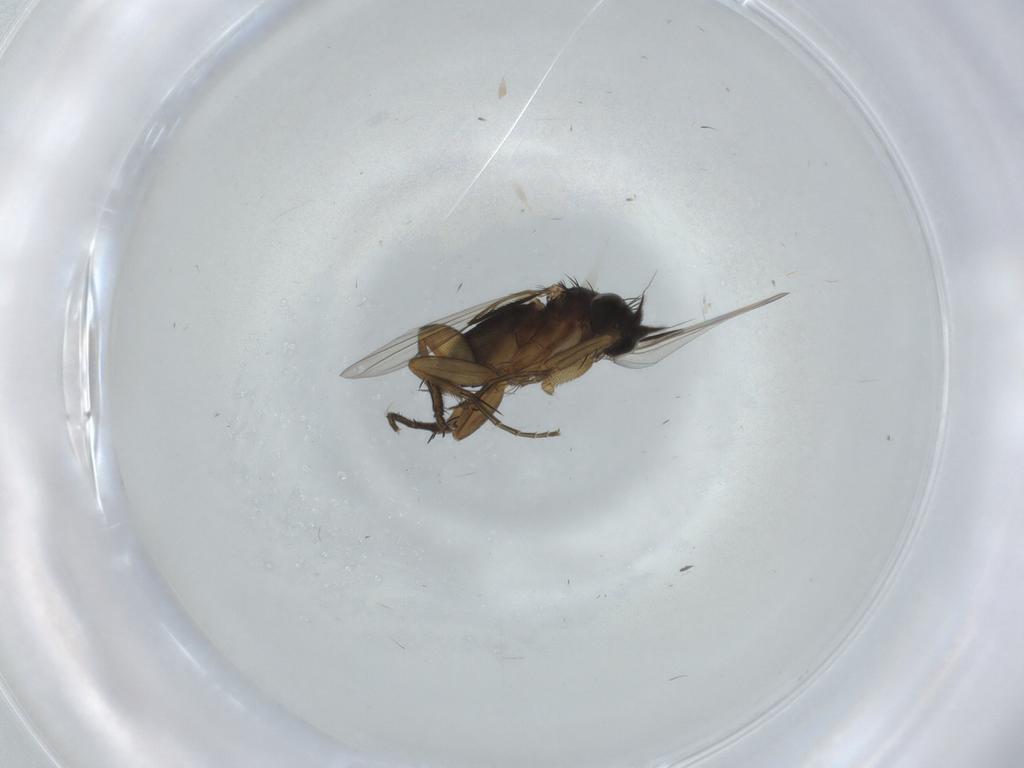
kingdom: Animalia
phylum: Arthropoda
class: Insecta
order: Diptera
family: Phoridae
